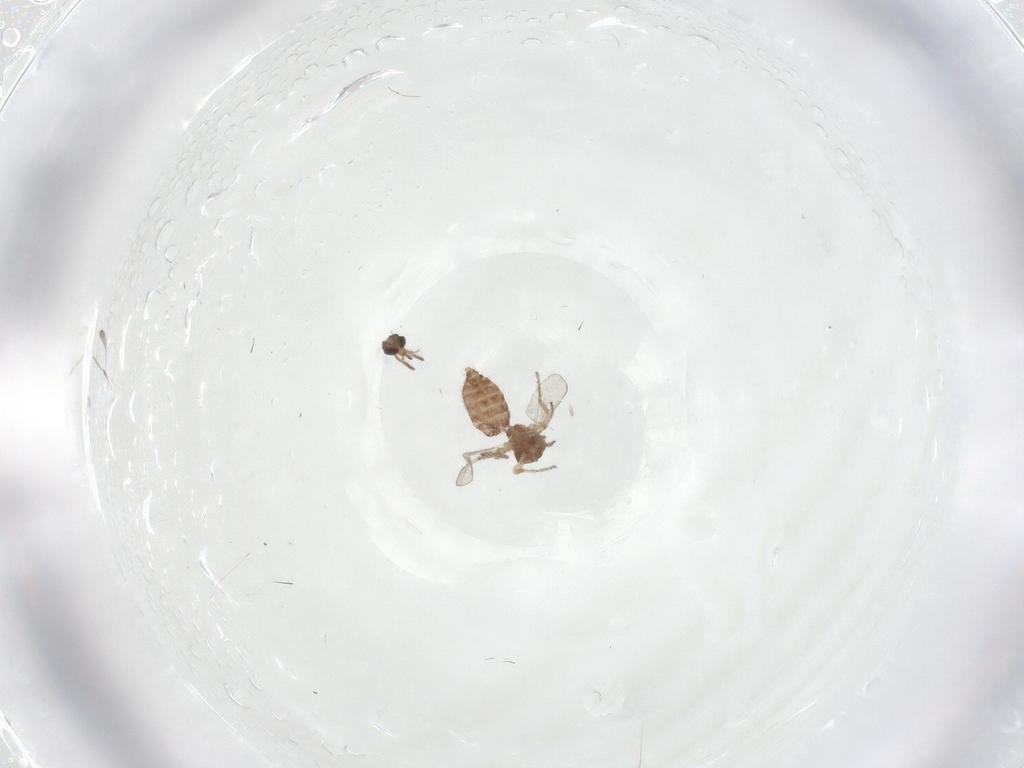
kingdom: Animalia
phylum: Arthropoda
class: Insecta
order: Diptera
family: Ceratopogonidae
